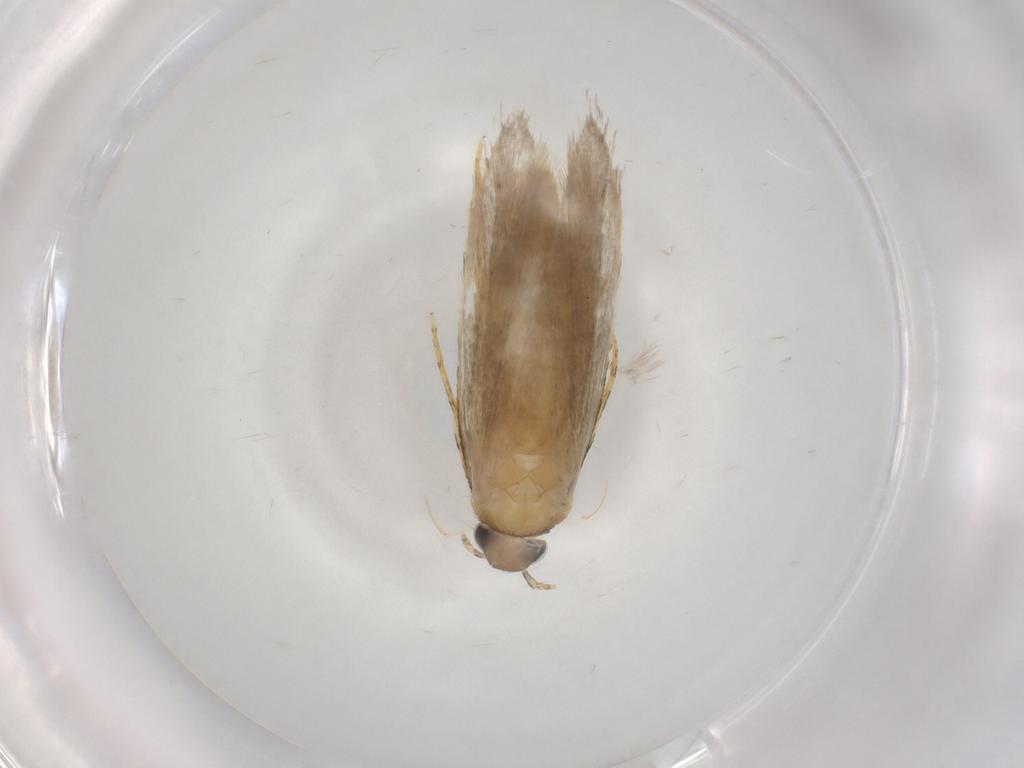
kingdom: Animalia
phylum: Arthropoda
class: Insecta
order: Lepidoptera
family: Autostichidae
